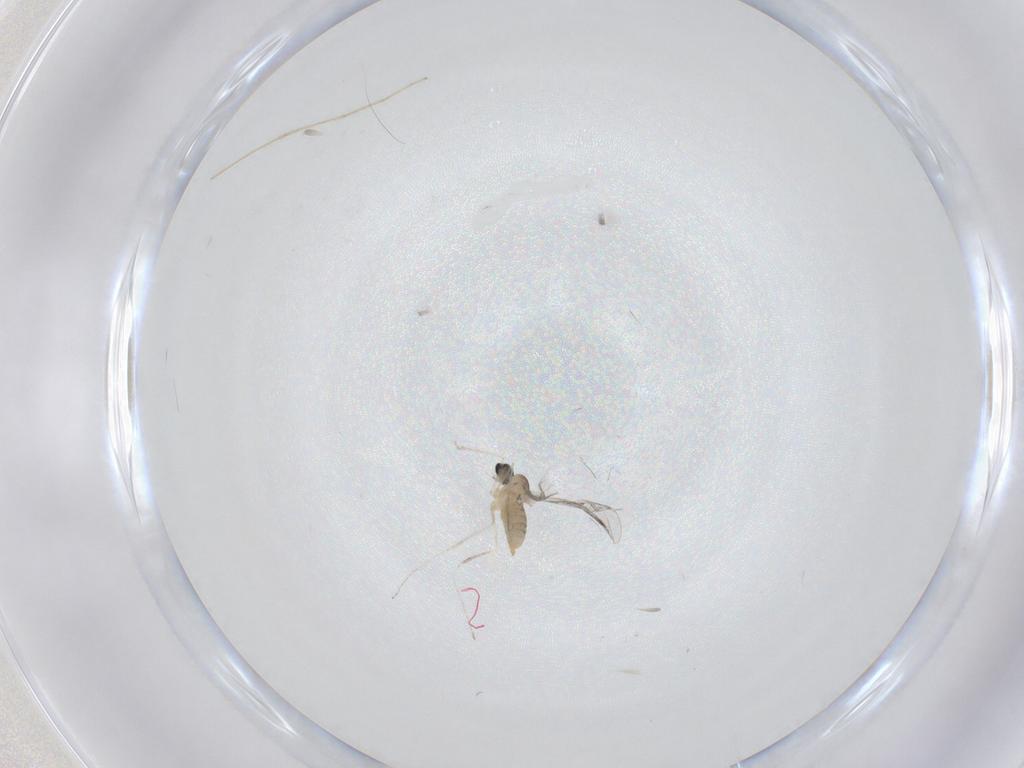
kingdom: Animalia
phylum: Arthropoda
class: Insecta
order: Diptera
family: Cecidomyiidae
